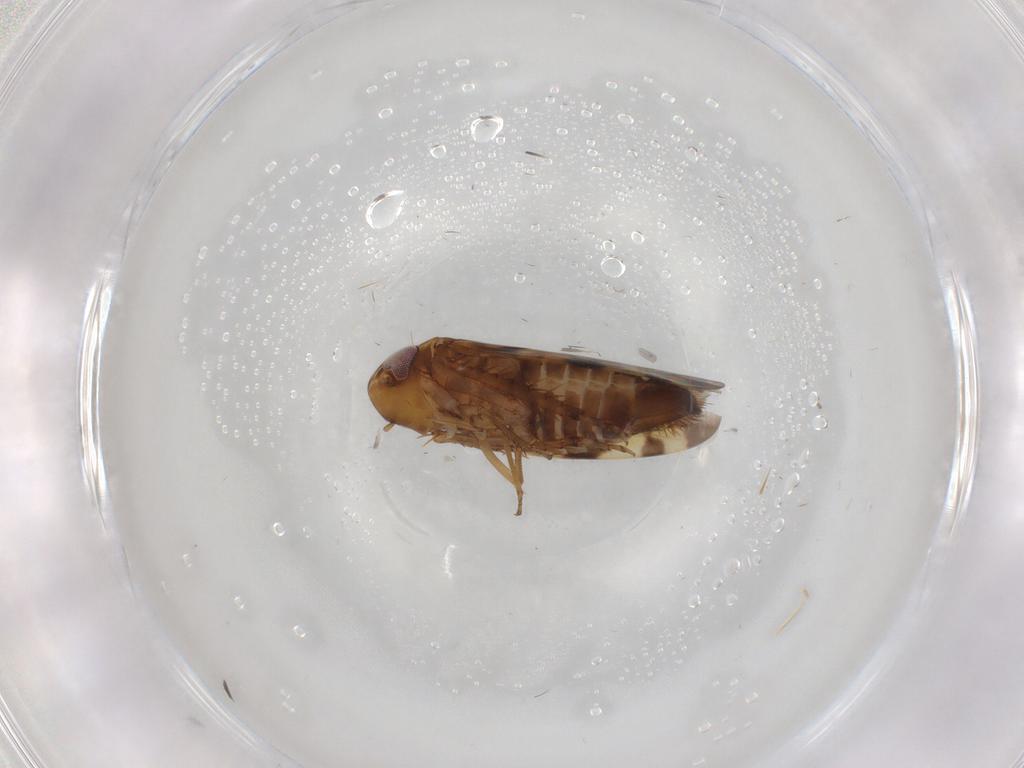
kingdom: Animalia
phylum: Arthropoda
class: Insecta
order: Hemiptera
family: Cicadellidae
